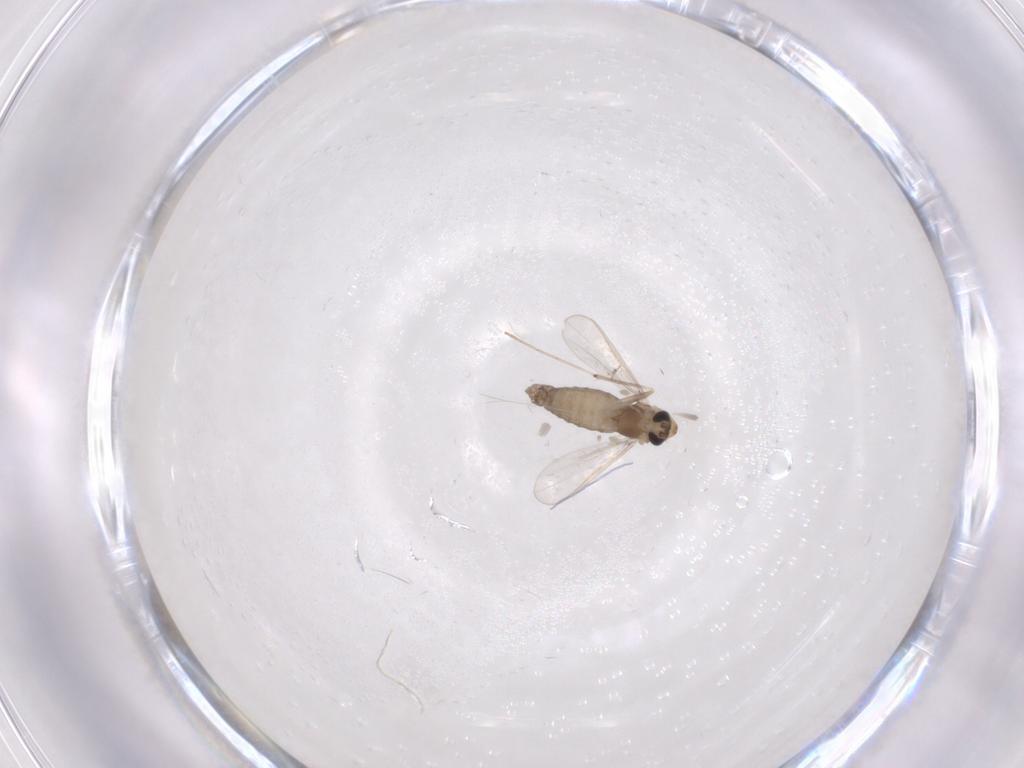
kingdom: Animalia
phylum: Arthropoda
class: Insecta
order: Diptera
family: Chironomidae
